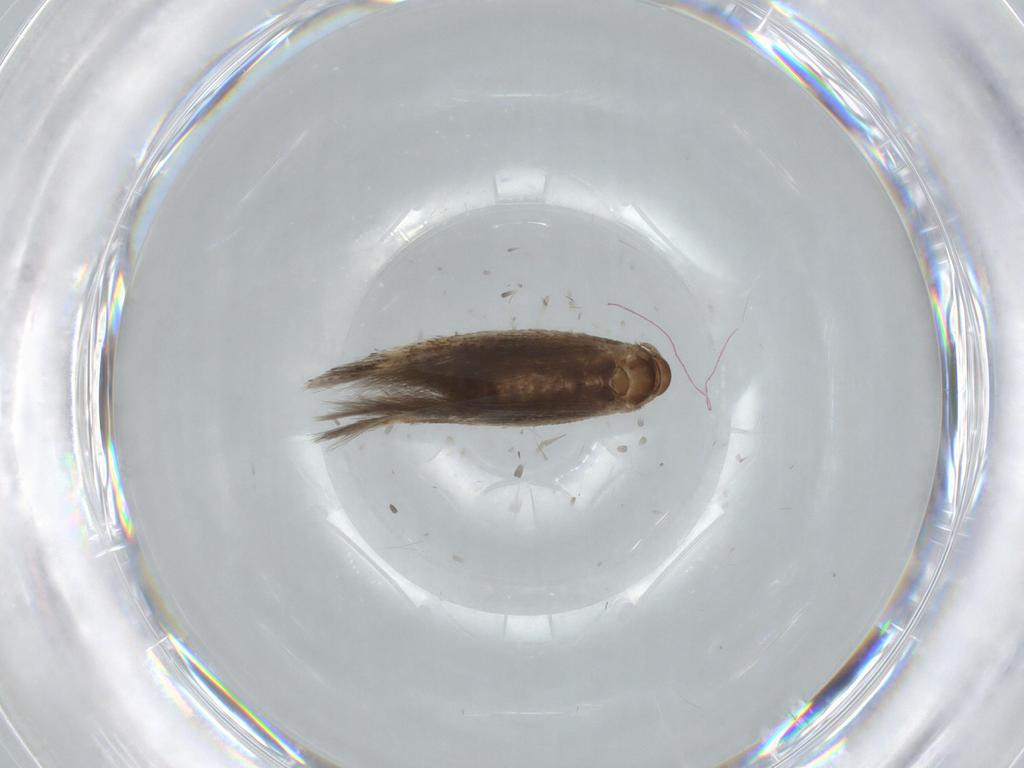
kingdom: Animalia
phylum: Arthropoda
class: Insecta
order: Lepidoptera
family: Elachistidae
